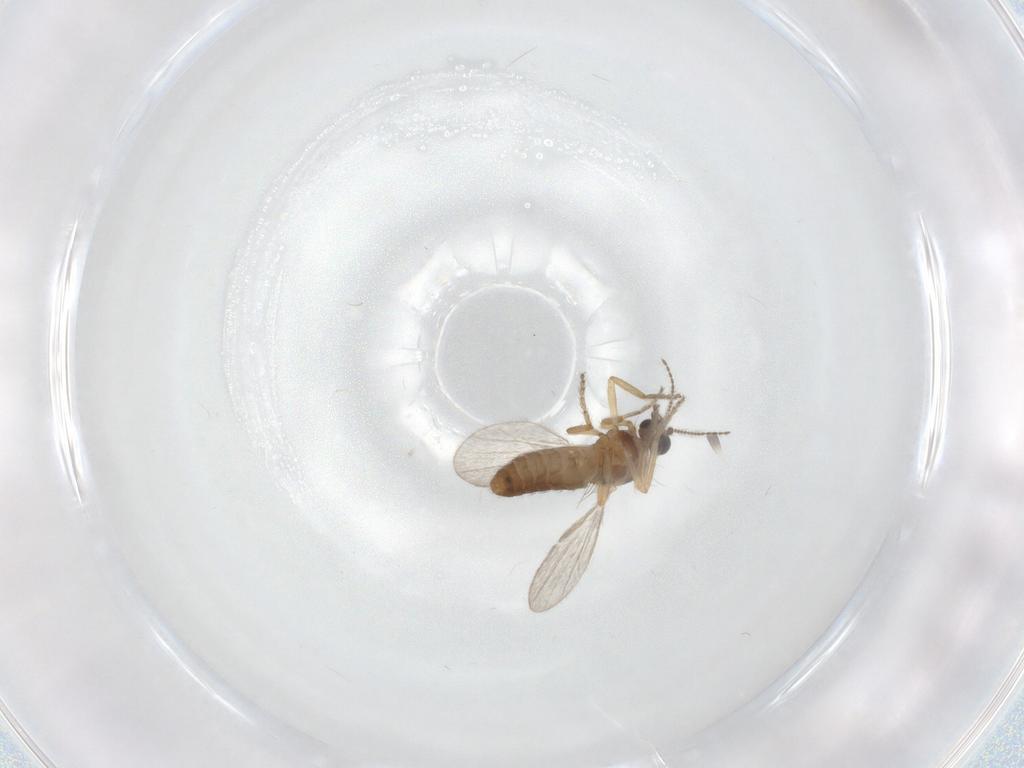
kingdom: Animalia
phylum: Arthropoda
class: Insecta
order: Diptera
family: Ceratopogonidae
